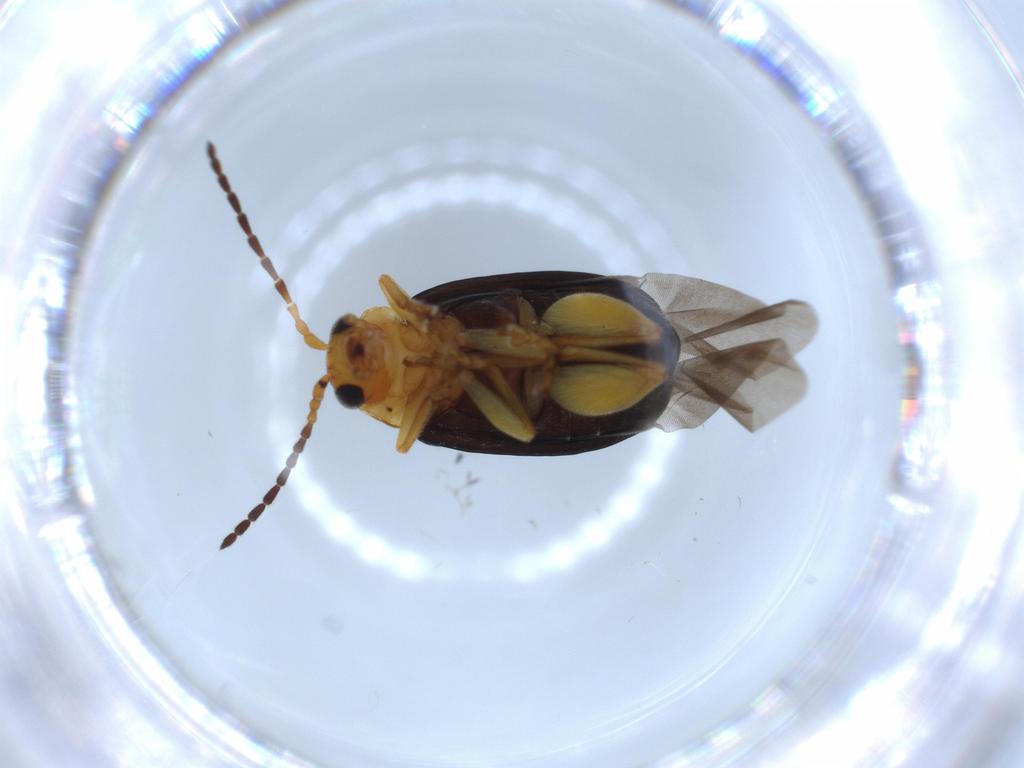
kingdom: Animalia
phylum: Arthropoda
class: Insecta
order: Coleoptera
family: Chrysomelidae
